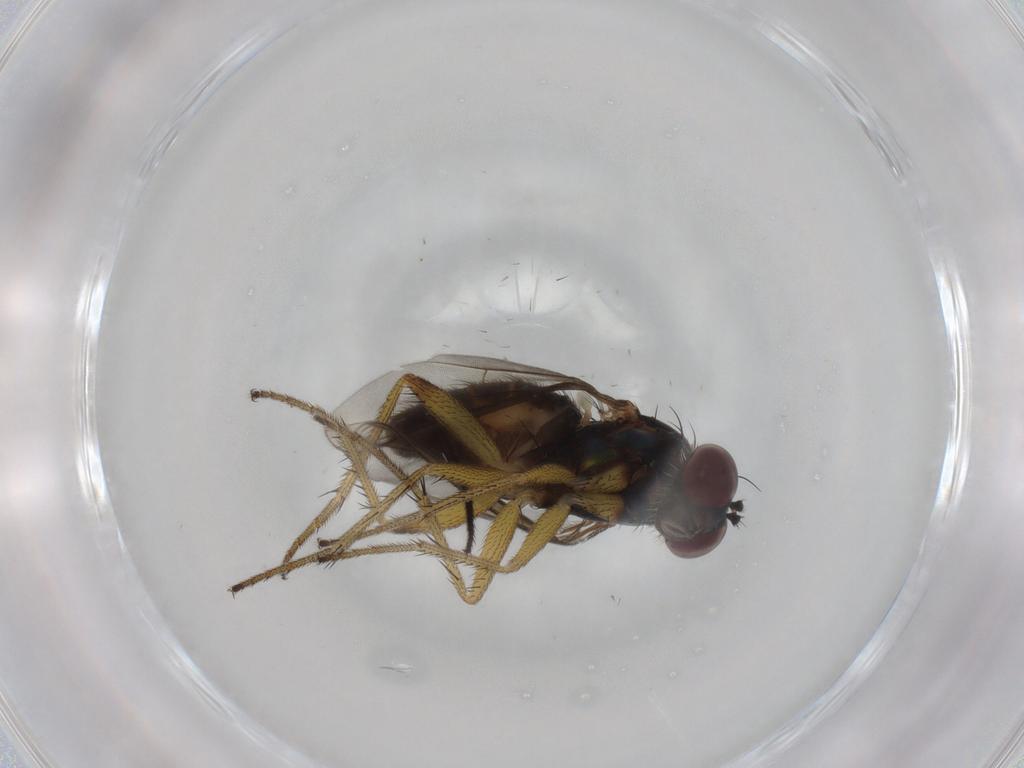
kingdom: Animalia
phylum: Arthropoda
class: Insecta
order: Diptera
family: Dolichopodidae
